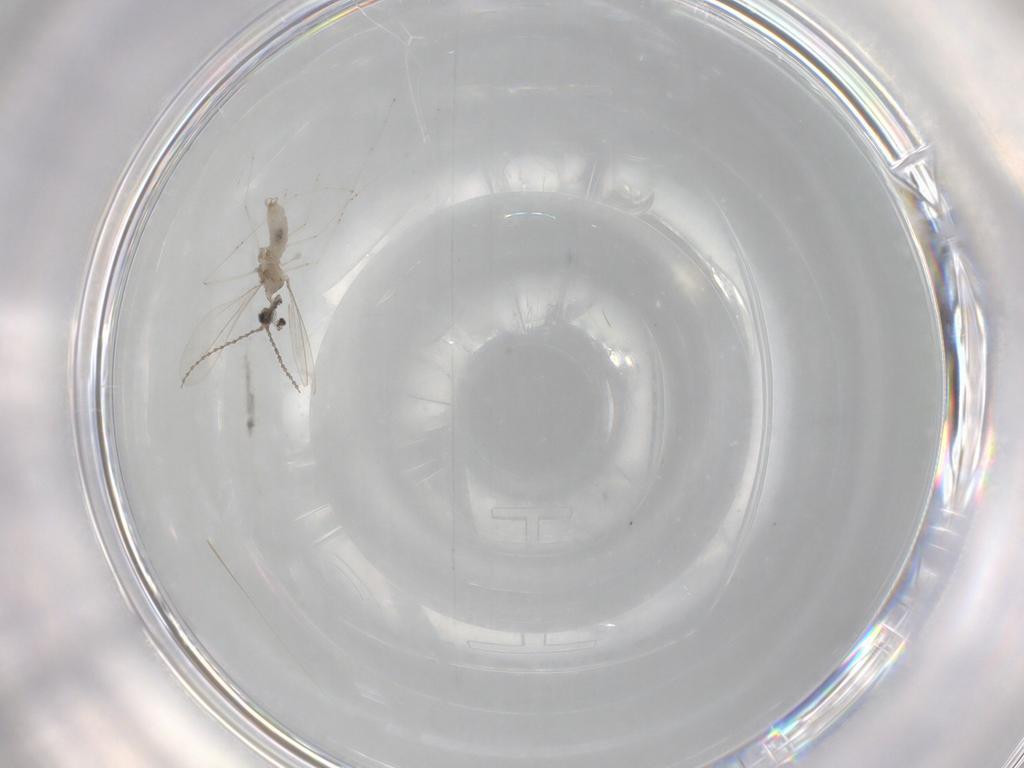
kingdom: Animalia
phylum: Arthropoda
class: Insecta
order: Diptera
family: Cecidomyiidae
